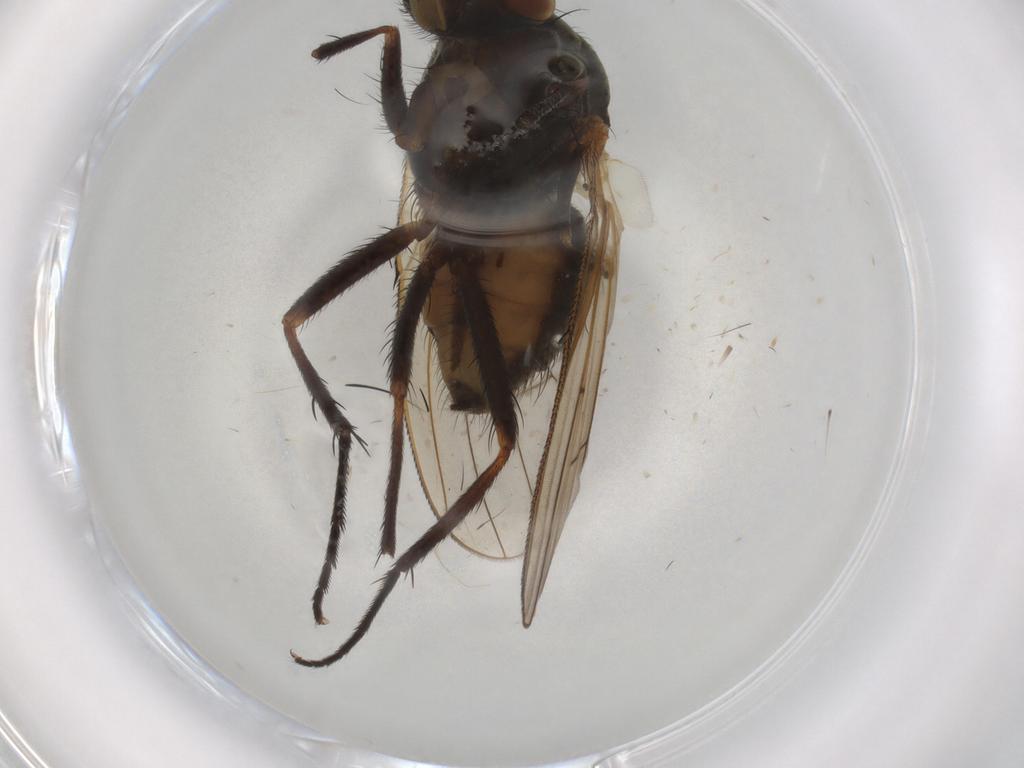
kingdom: Animalia
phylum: Arthropoda
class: Insecta
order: Diptera
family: Anthomyiidae
